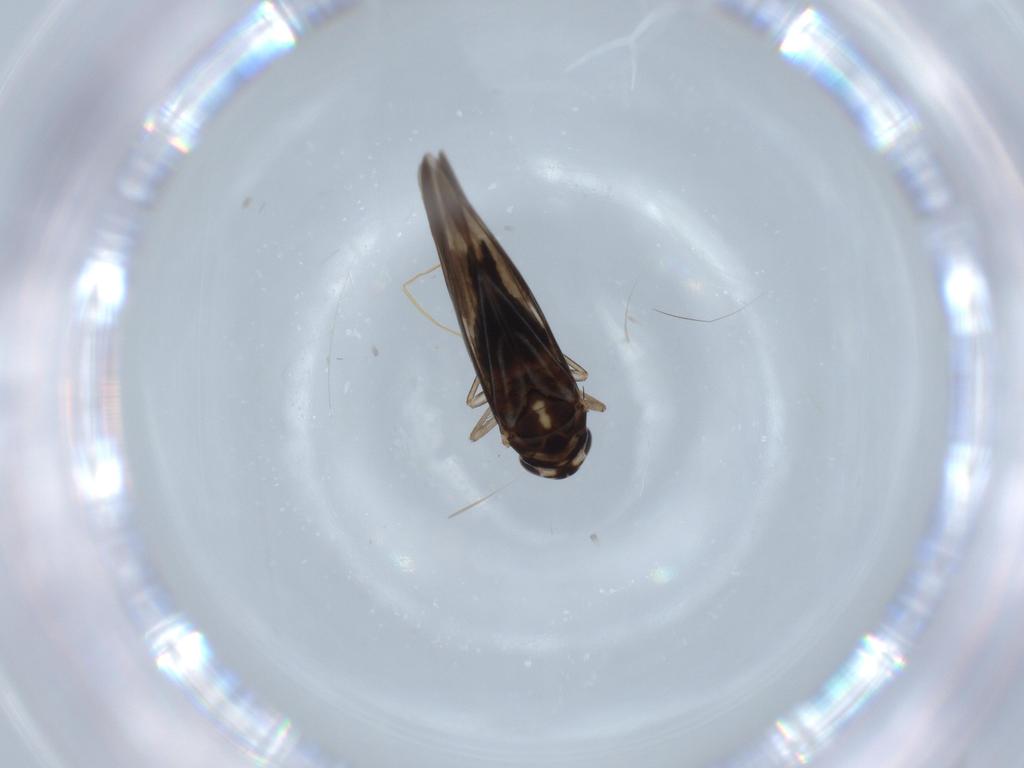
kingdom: Animalia
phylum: Arthropoda
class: Insecta
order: Hemiptera
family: Cicadellidae
